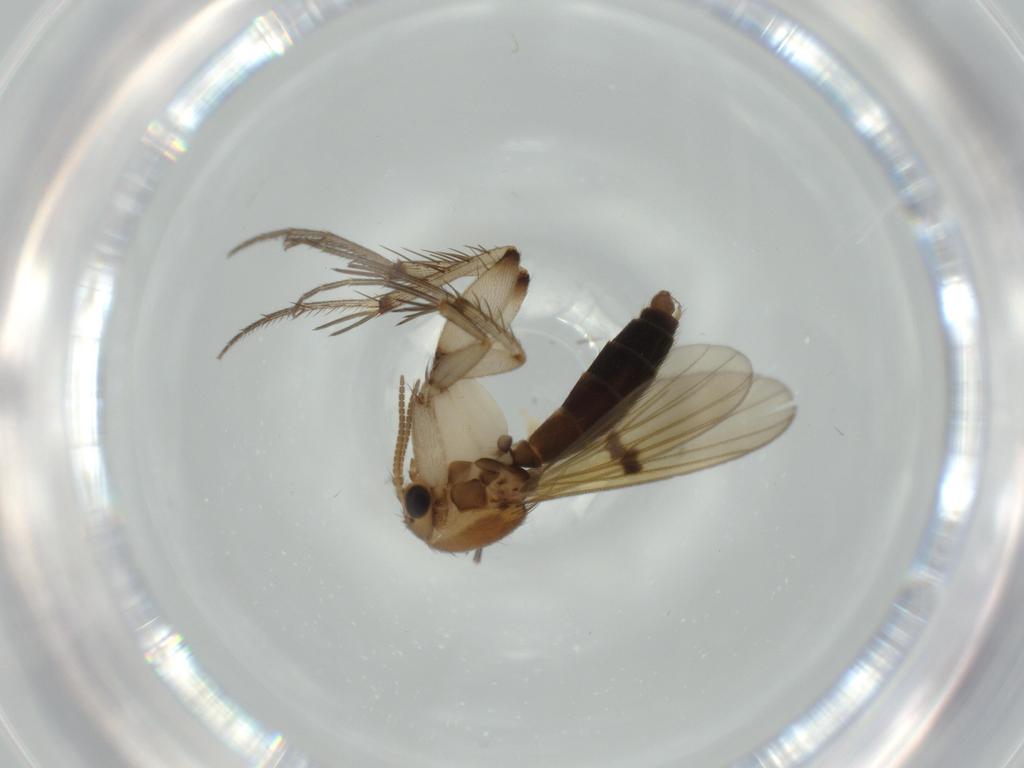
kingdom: Animalia
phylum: Arthropoda
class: Insecta
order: Diptera
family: Mycetophilidae
